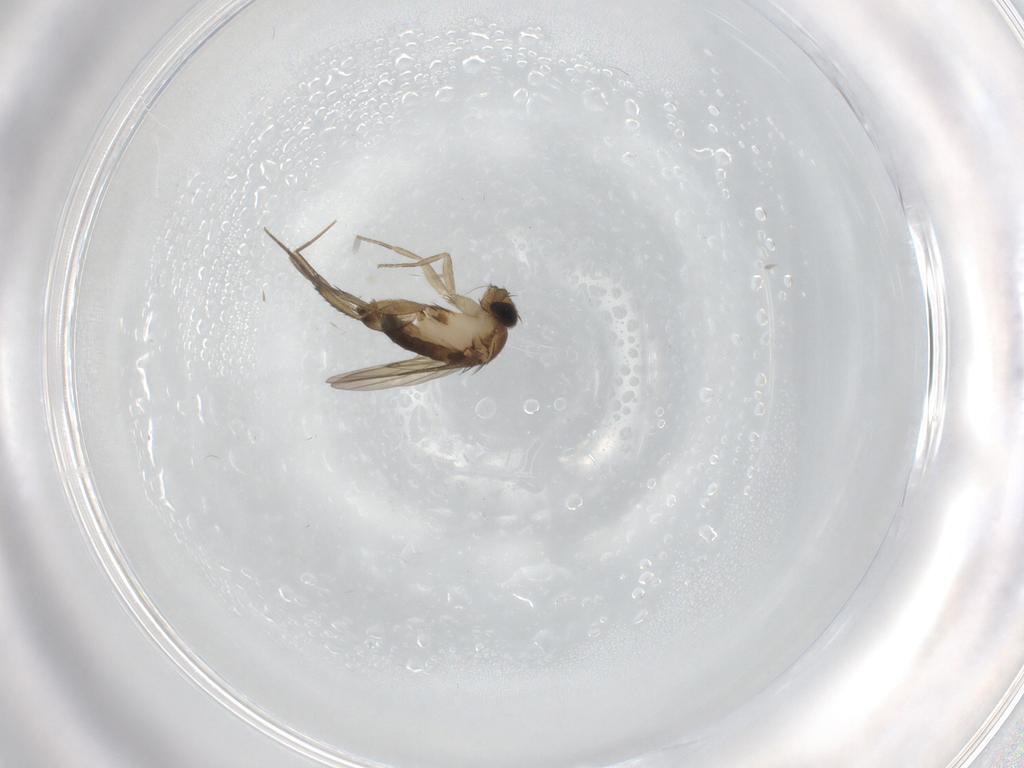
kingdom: Animalia
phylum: Arthropoda
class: Insecta
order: Diptera
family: Phoridae
